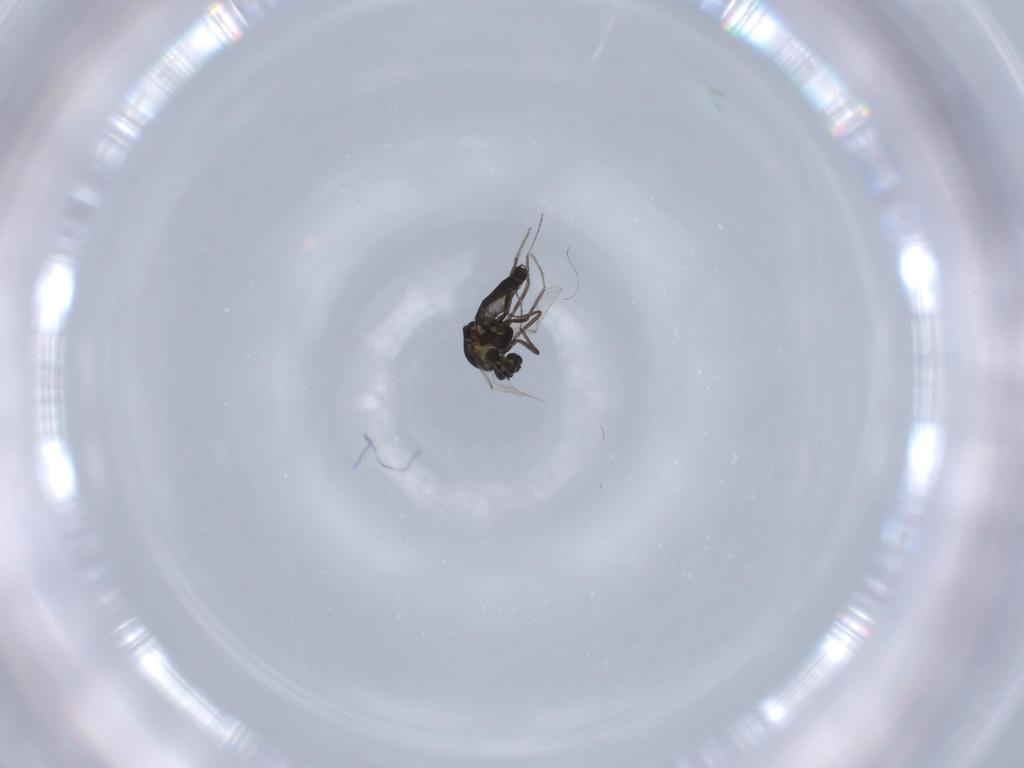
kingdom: Animalia
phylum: Arthropoda
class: Insecta
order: Diptera
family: Ceratopogonidae
